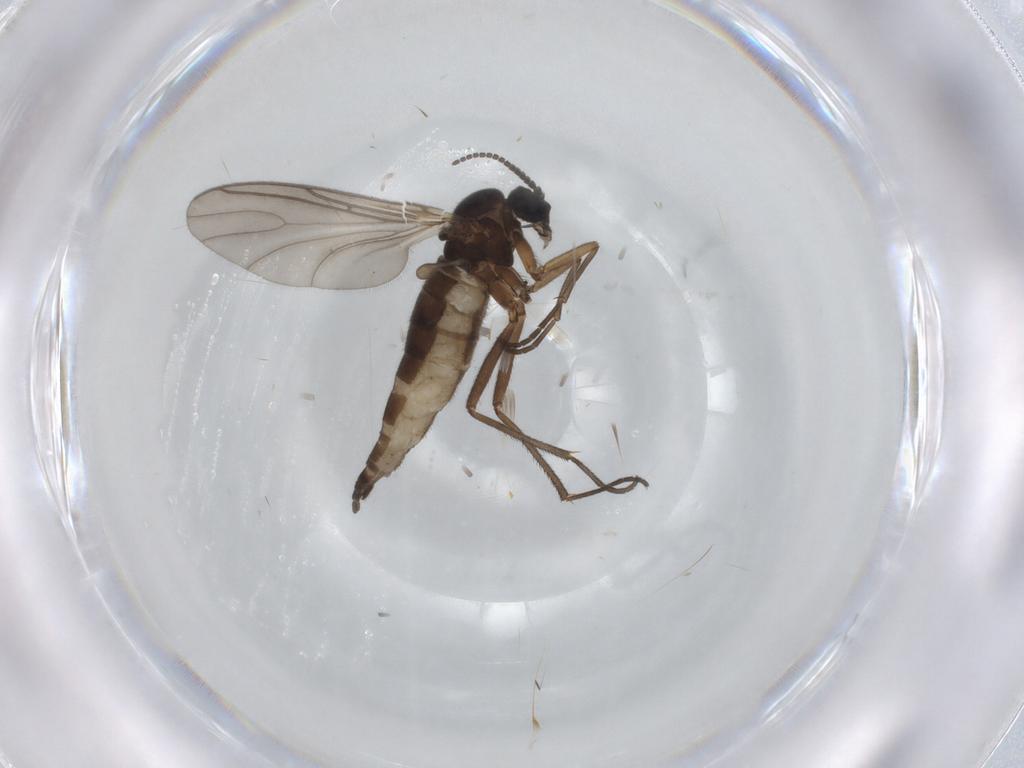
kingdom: Animalia
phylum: Arthropoda
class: Insecta
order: Diptera
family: Sciaridae
